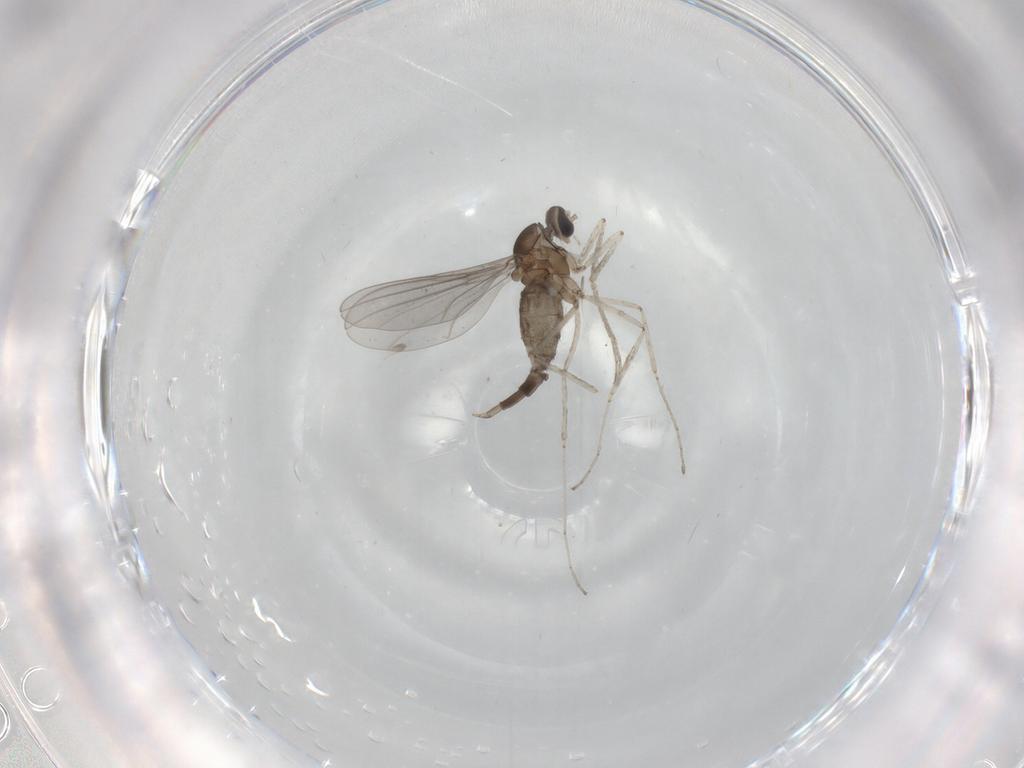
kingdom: Animalia
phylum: Arthropoda
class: Insecta
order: Diptera
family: Cecidomyiidae
